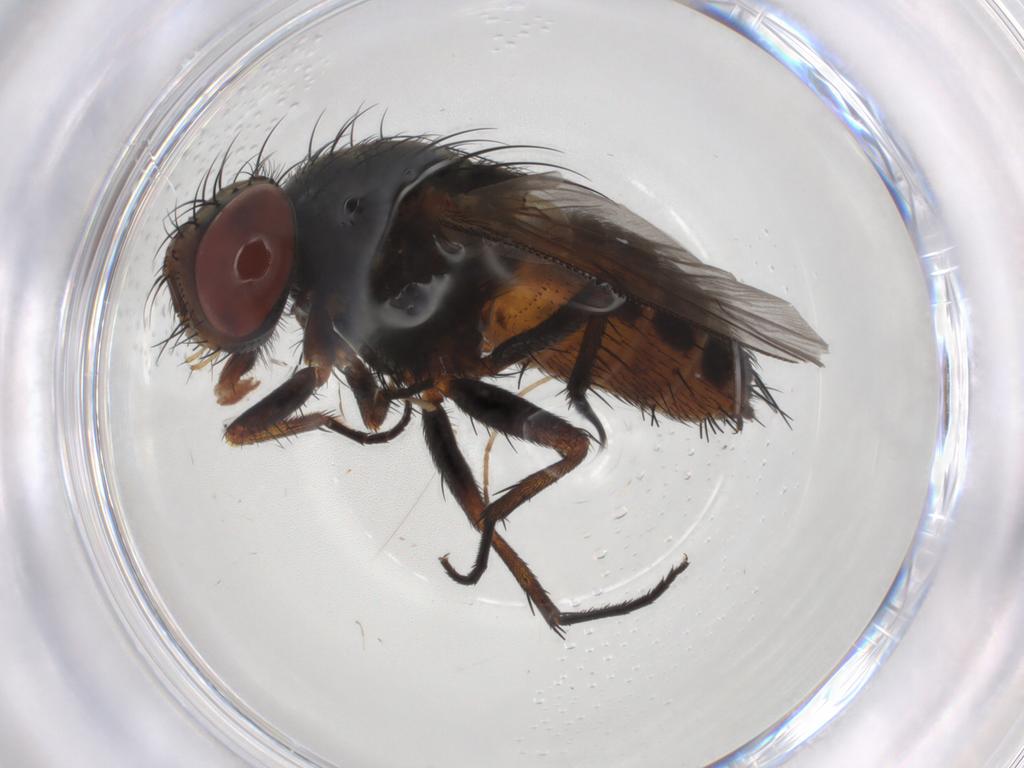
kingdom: Animalia
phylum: Arthropoda
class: Insecta
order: Diptera
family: Sarcophagidae
